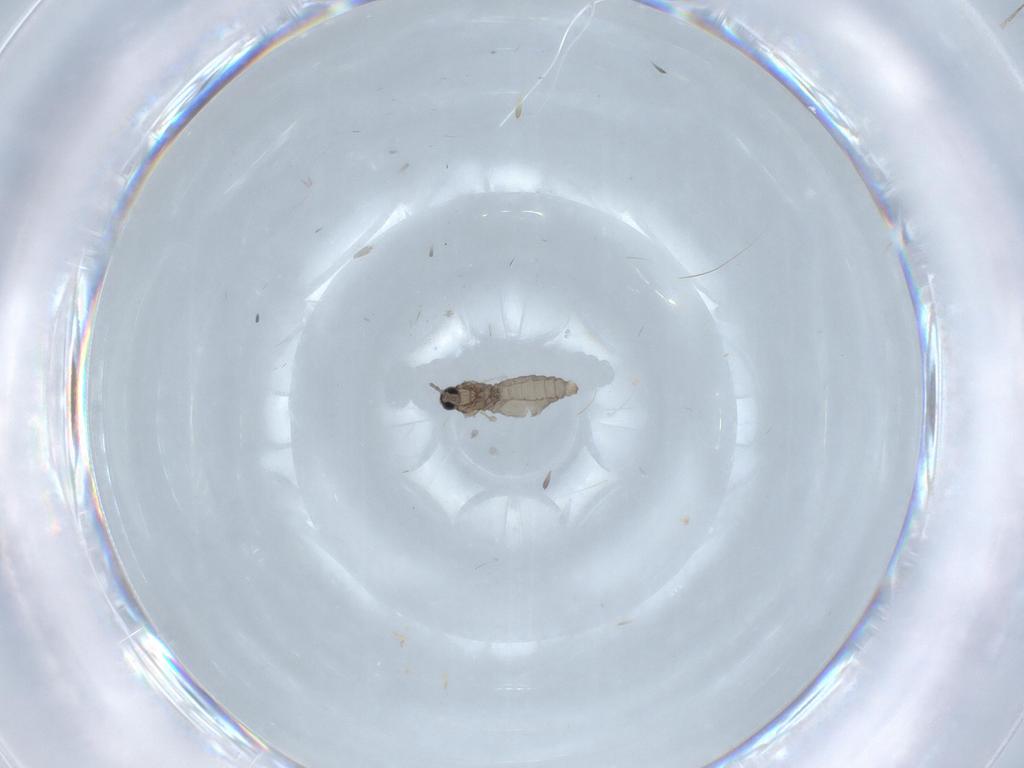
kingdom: Animalia
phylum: Arthropoda
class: Insecta
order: Diptera
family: Cecidomyiidae
